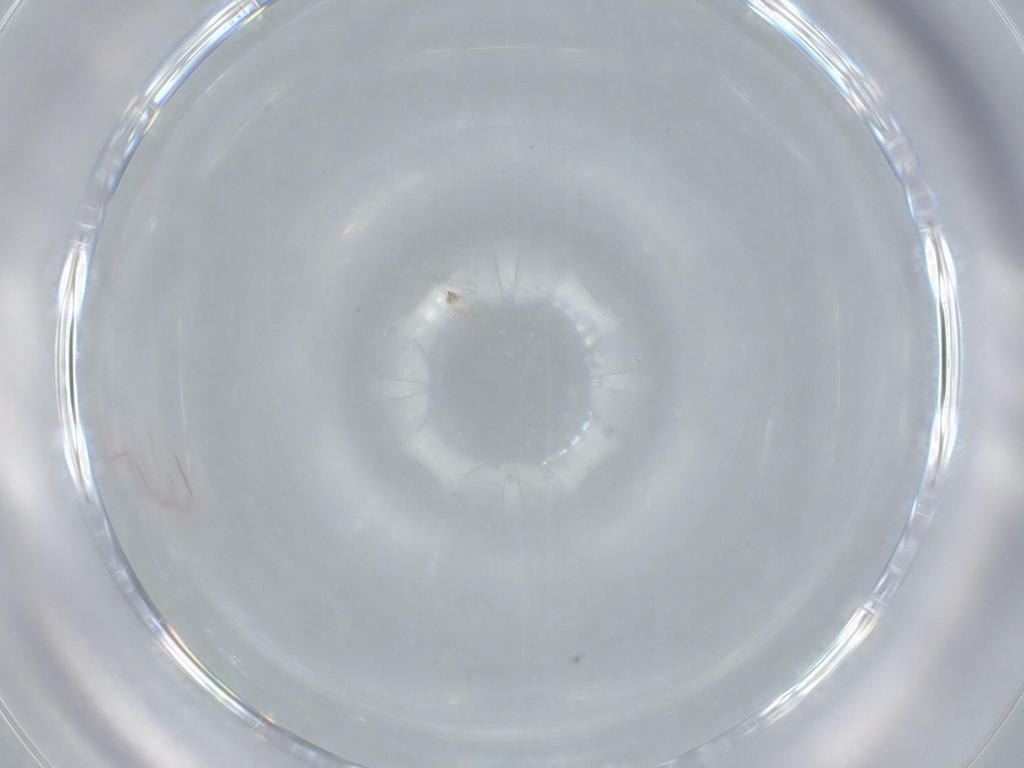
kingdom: Animalia
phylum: Arthropoda
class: Arachnida
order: Sarcoptiformes
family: Epidermoptidae
